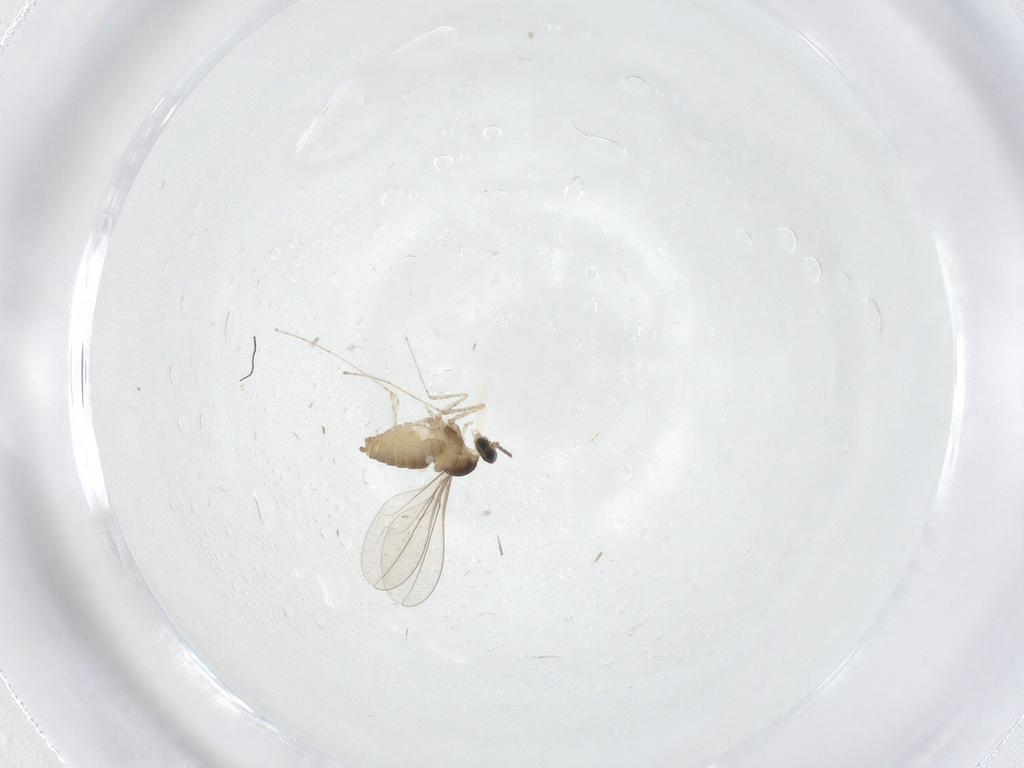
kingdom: Animalia
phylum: Arthropoda
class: Insecta
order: Diptera
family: Cecidomyiidae
